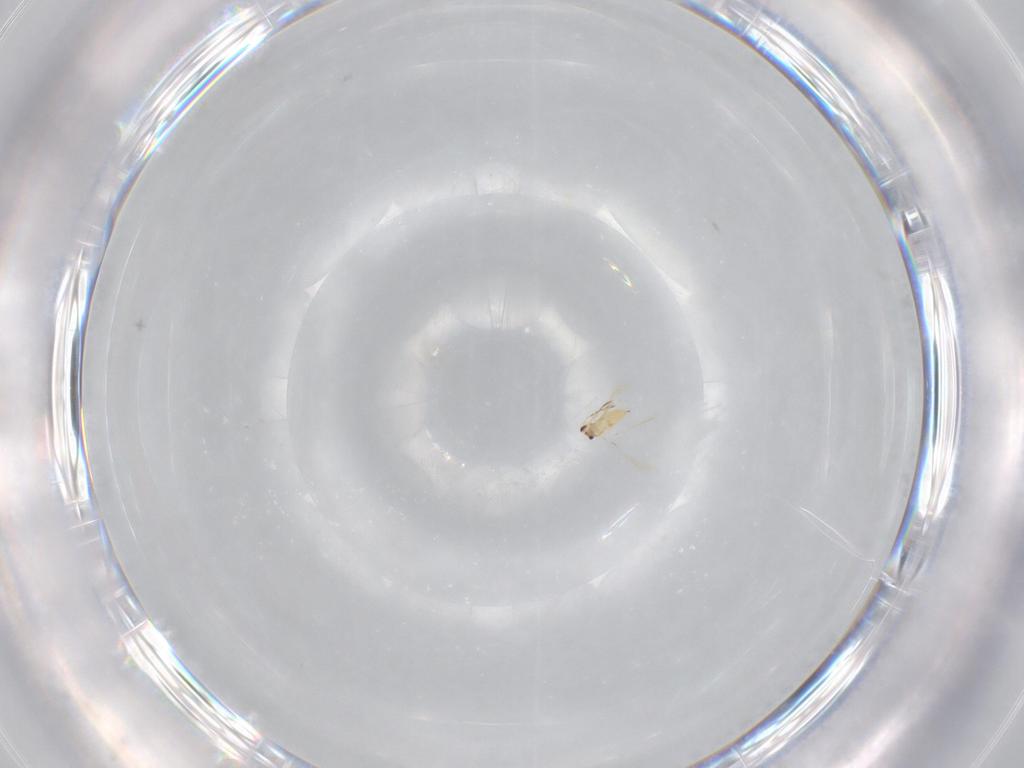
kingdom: Animalia
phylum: Arthropoda
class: Insecta
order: Hymenoptera
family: Mymaridae
